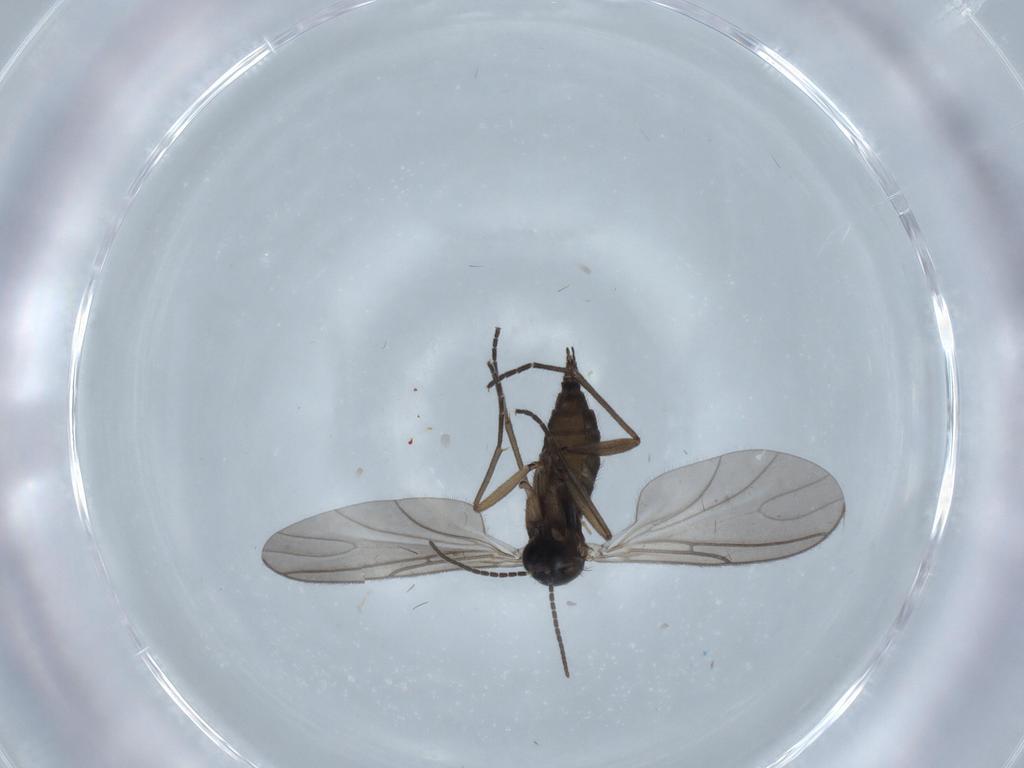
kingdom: Animalia
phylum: Arthropoda
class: Insecta
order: Diptera
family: Sciaridae
